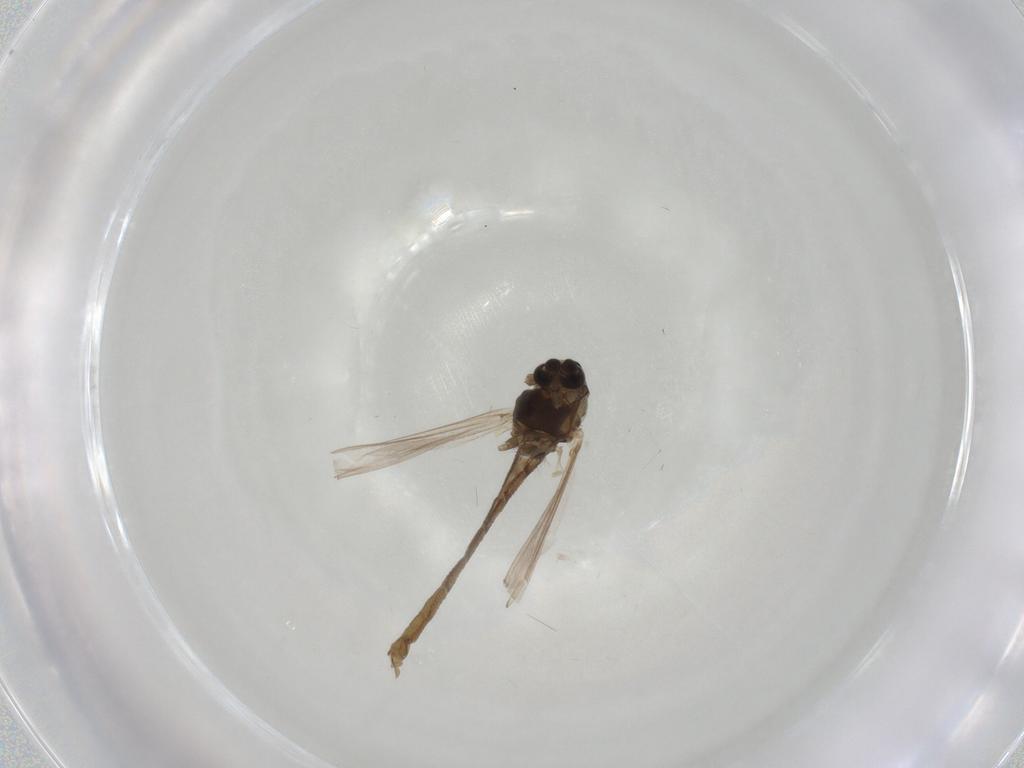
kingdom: Animalia
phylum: Arthropoda
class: Insecta
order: Diptera
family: Chironomidae
